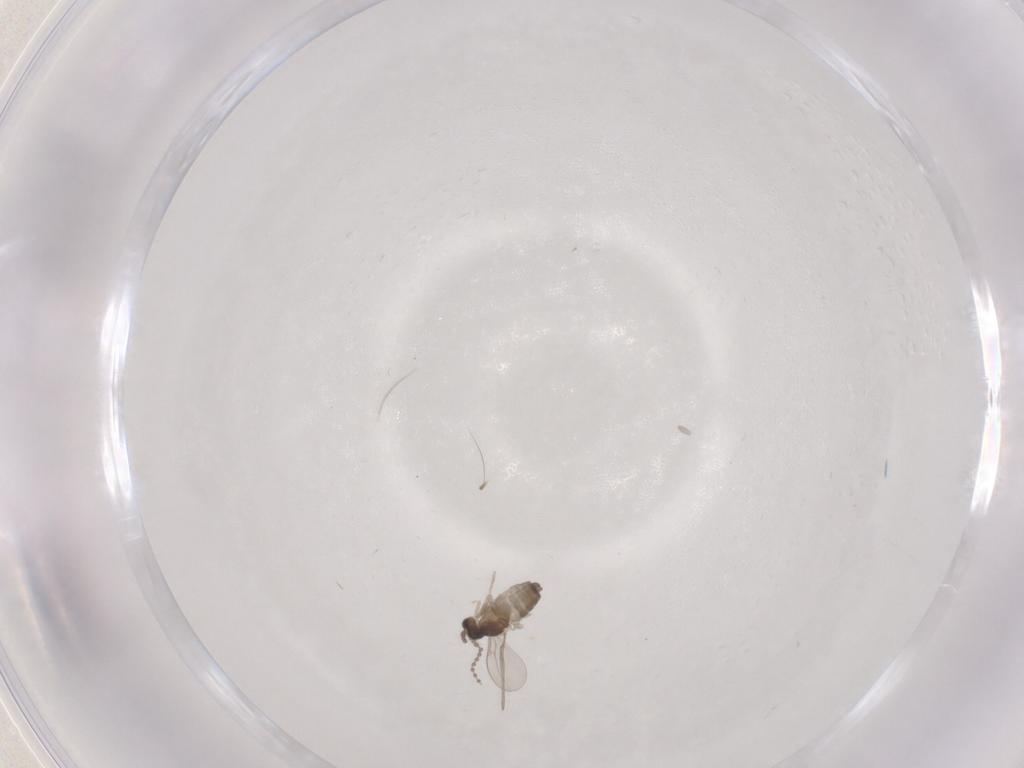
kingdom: Animalia
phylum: Arthropoda
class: Insecta
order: Diptera
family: Cecidomyiidae
